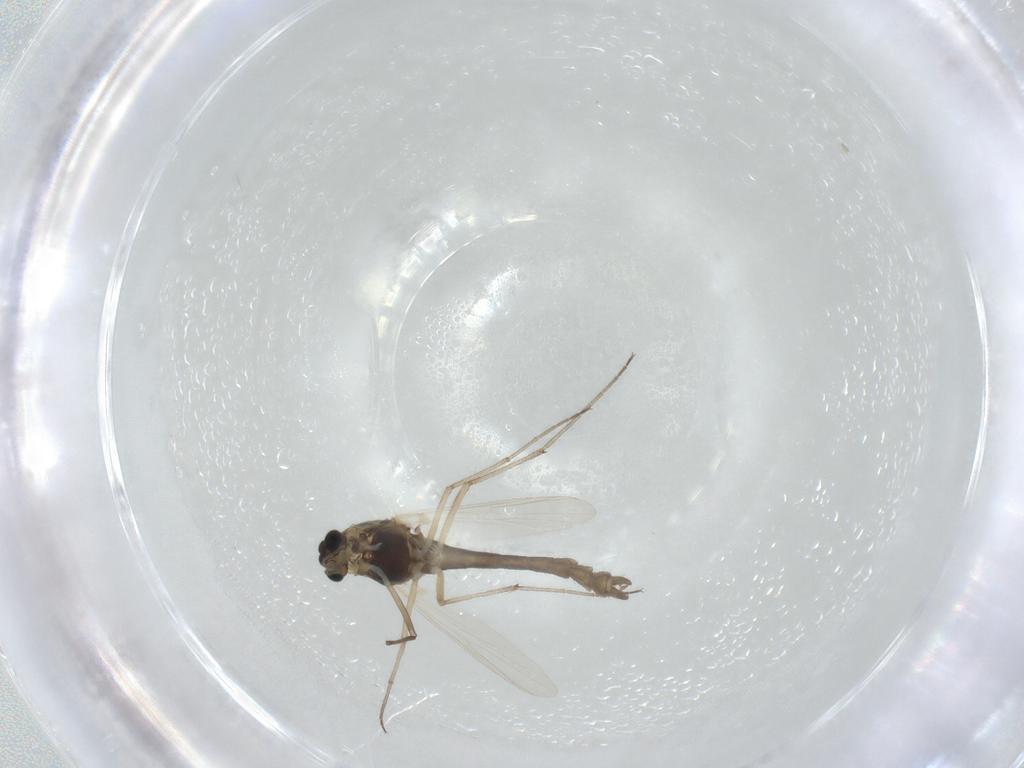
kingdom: Animalia
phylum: Arthropoda
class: Insecta
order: Diptera
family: Chironomidae
